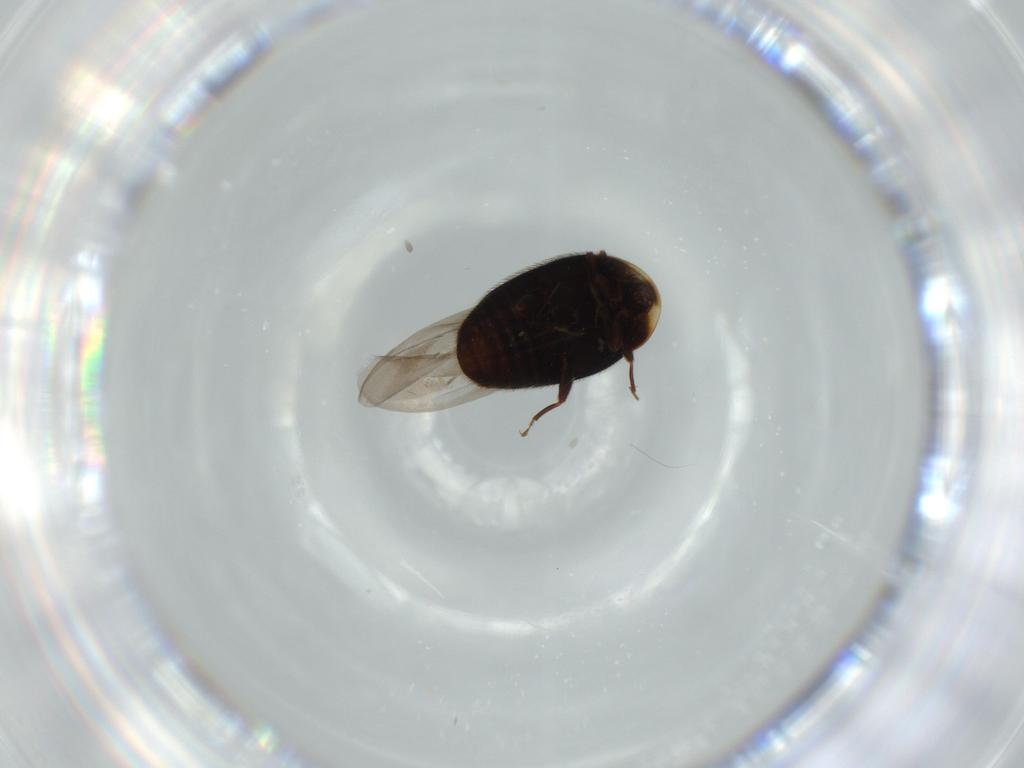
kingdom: Animalia
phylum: Arthropoda
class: Insecta
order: Coleoptera
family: Corylophidae
